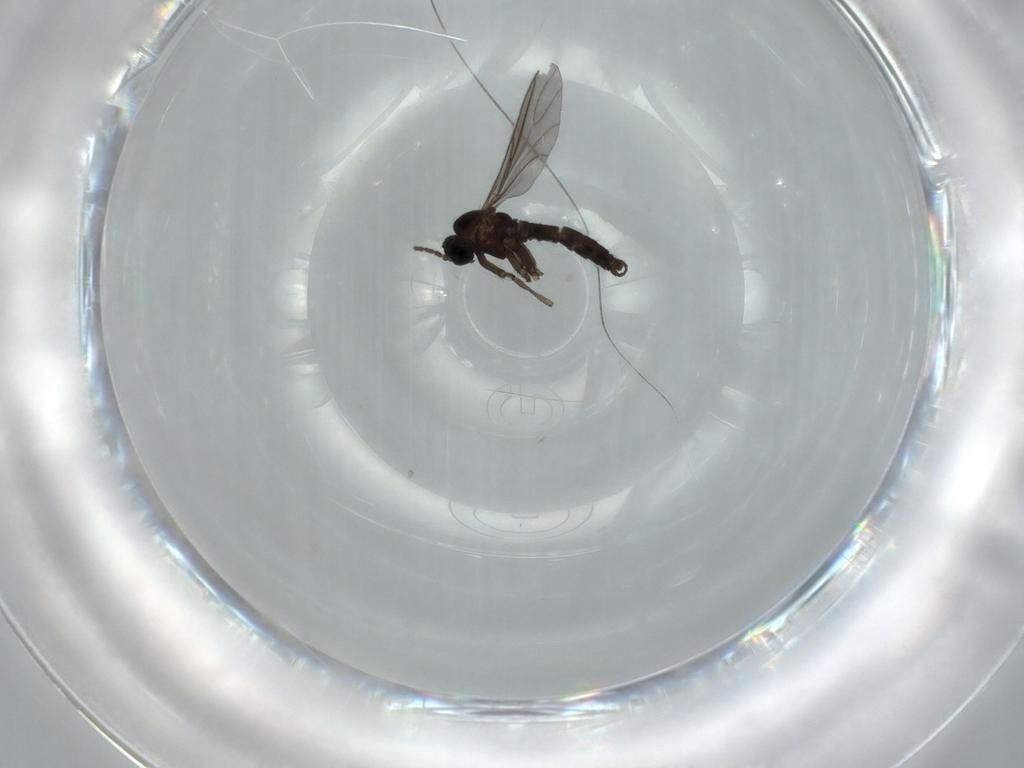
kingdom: Animalia
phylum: Arthropoda
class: Insecta
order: Diptera
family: Sciaridae
